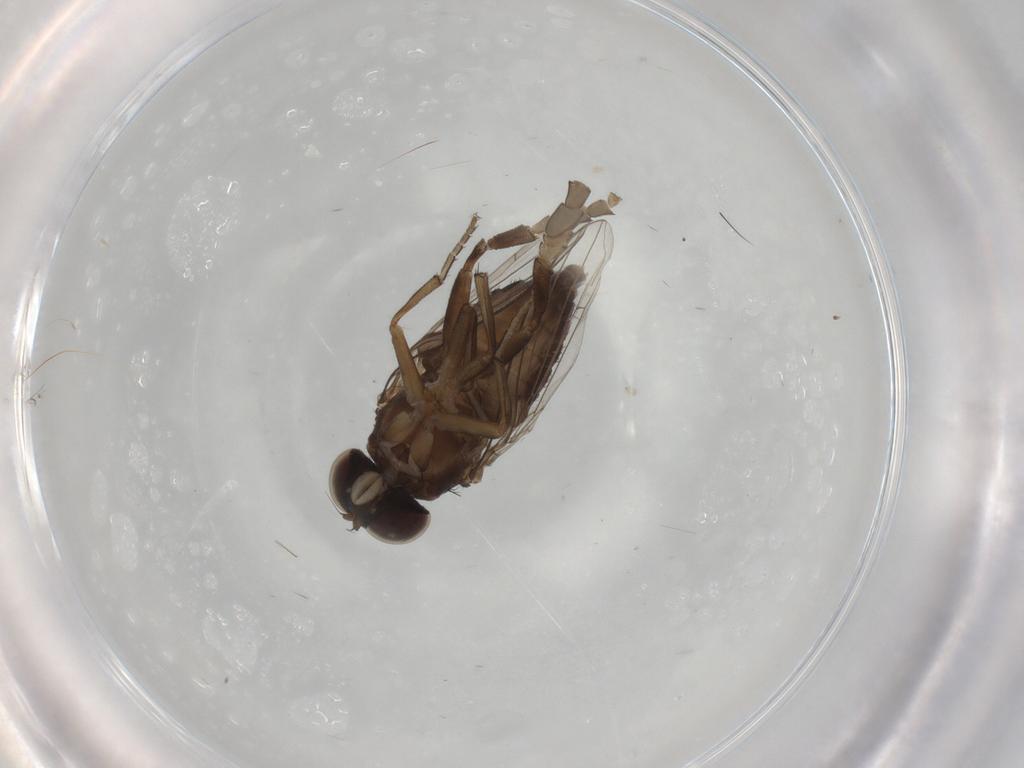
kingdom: Animalia
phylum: Arthropoda
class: Insecta
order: Diptera
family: Platypezidae
